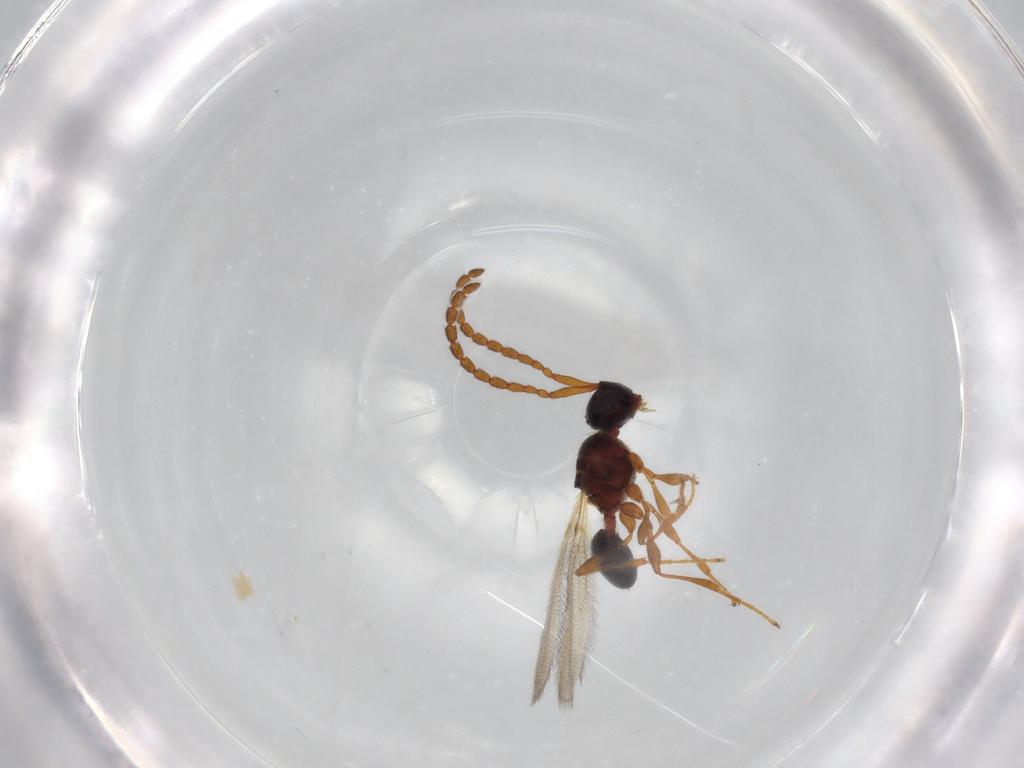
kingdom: Animalia
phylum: Arthropoda
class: Insecta
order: Hymenoptera
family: Diapriidae
